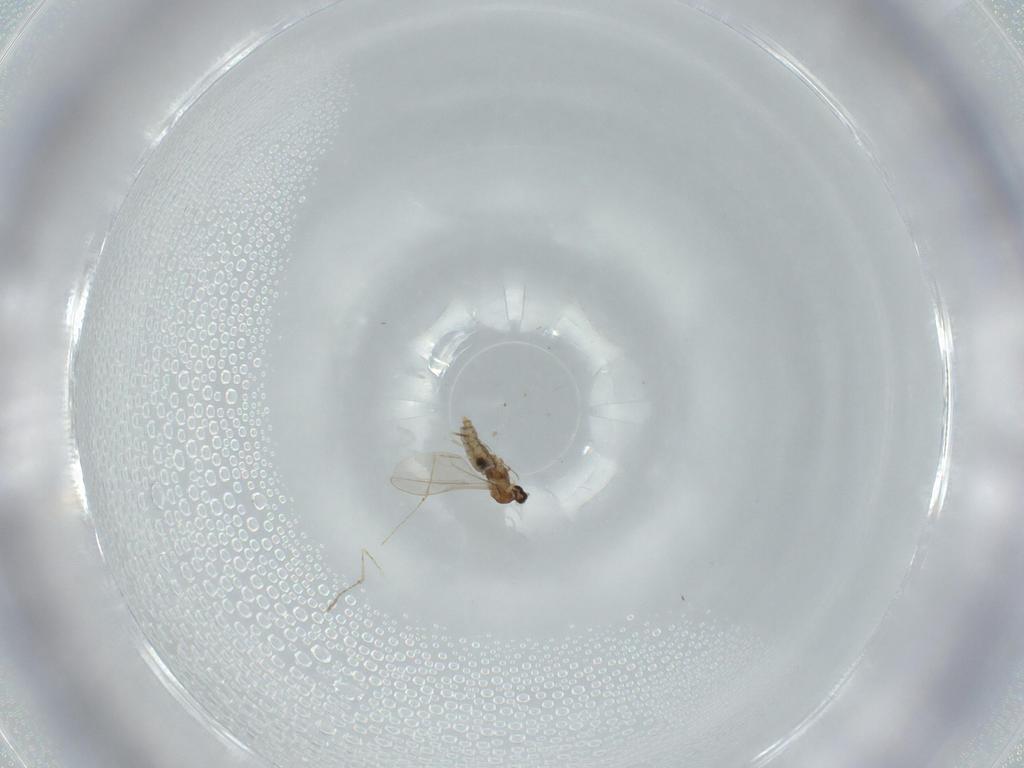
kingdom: Animalia
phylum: Arthropoda
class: Insecta
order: Diptera
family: Cecidomyiidae
